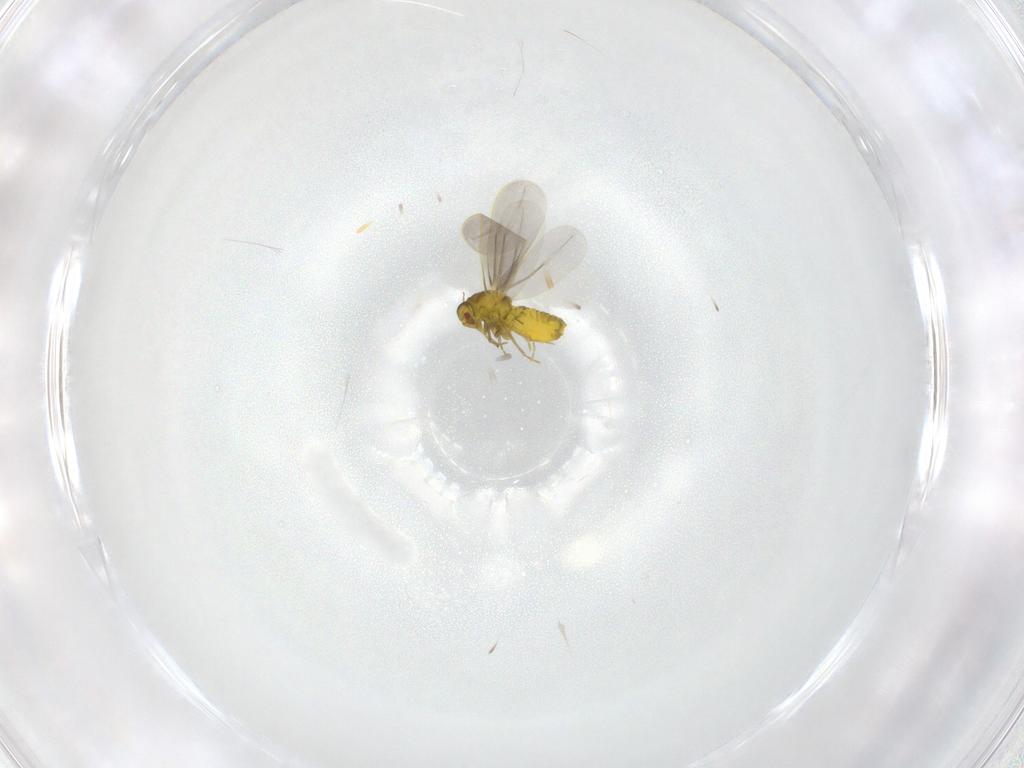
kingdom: Animalia
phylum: Arthropoda
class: Insecta
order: Hemiptera
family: Aleyrodidae
